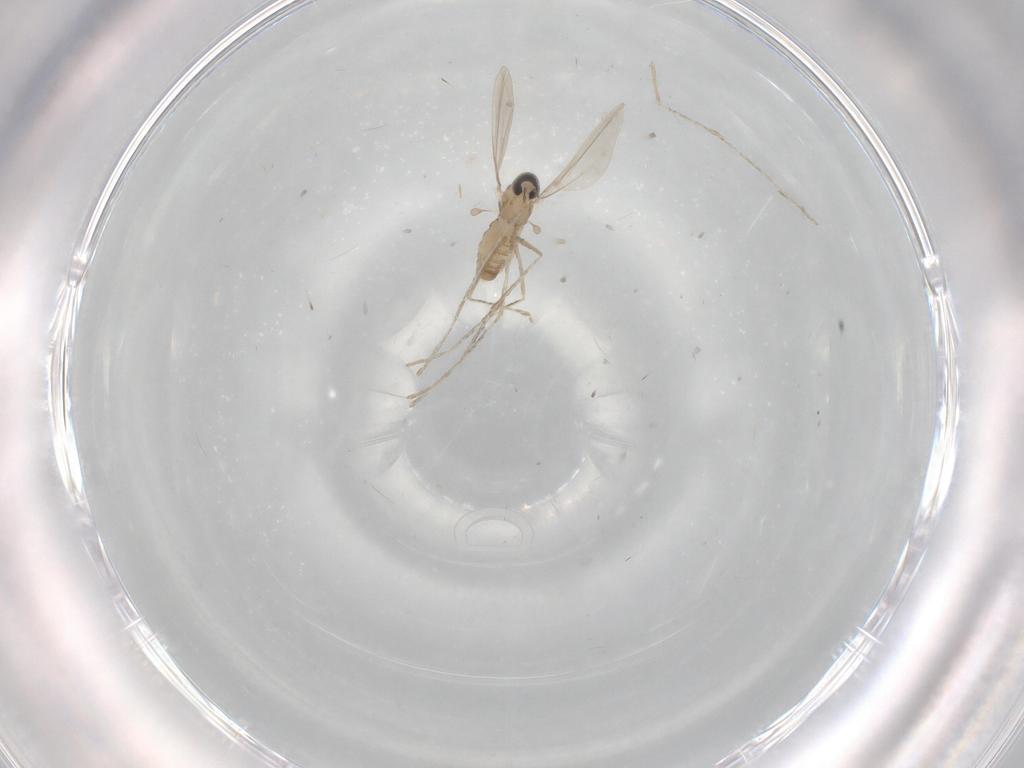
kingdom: Animalia
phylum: Arthropoda
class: Insecta
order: Diptera
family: Cecidomyiidae
